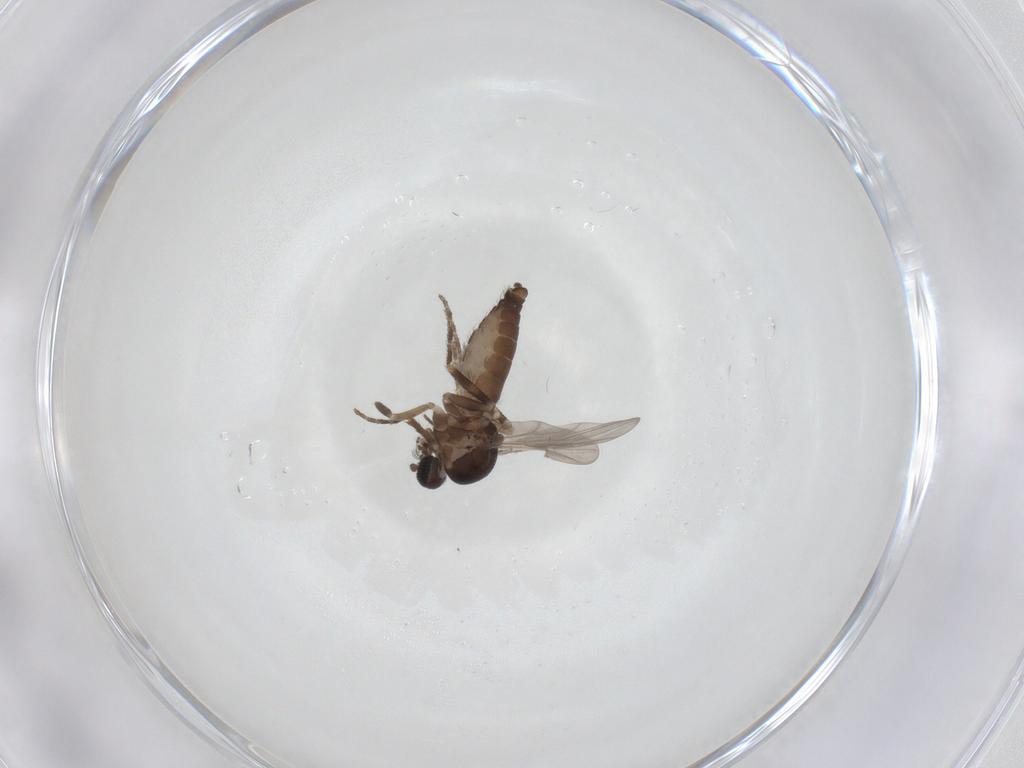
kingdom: Animalia
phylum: Arthropoda
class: Insecta
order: Diptera
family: Ceratopogonidae
